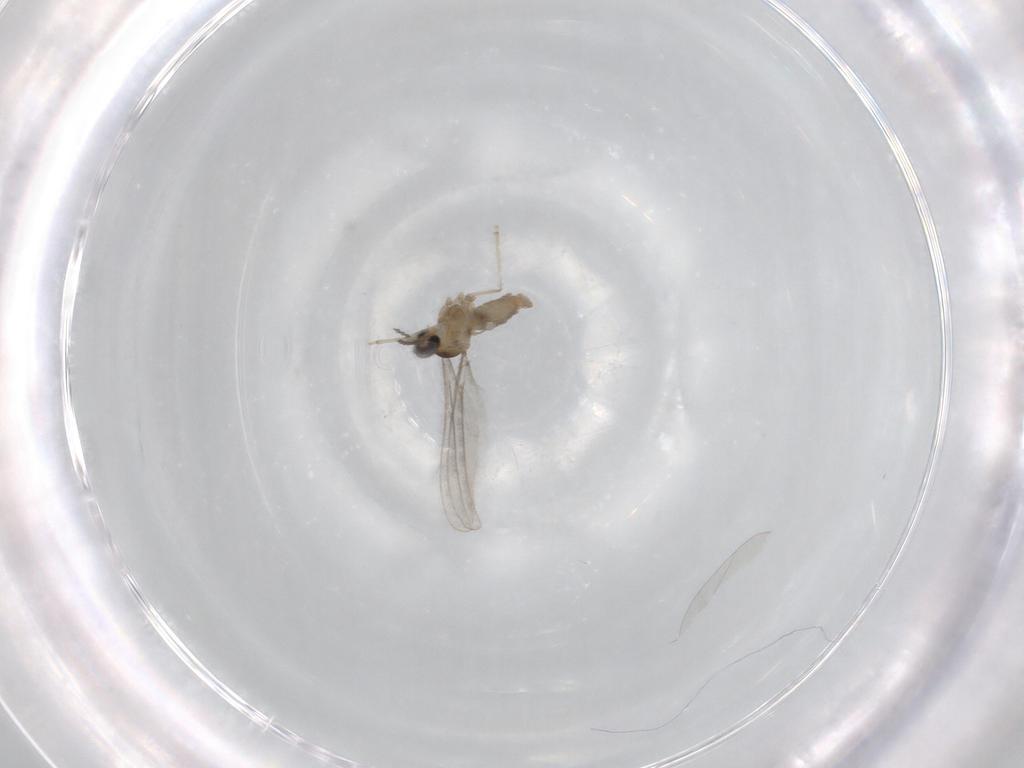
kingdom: Animalia
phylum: Arthropoda
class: Insecta
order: Diptera
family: Cecidomyiidae
